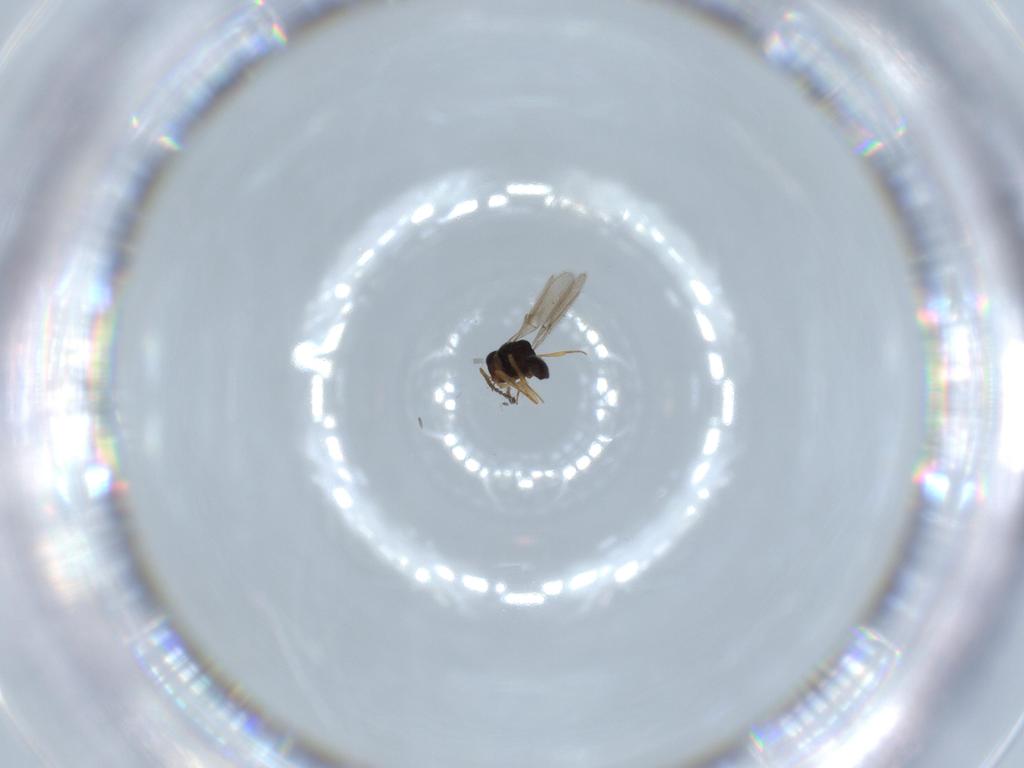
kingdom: Animalia
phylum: Arthropoda
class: Insecta
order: Hymenoptera
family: Scelionidae
